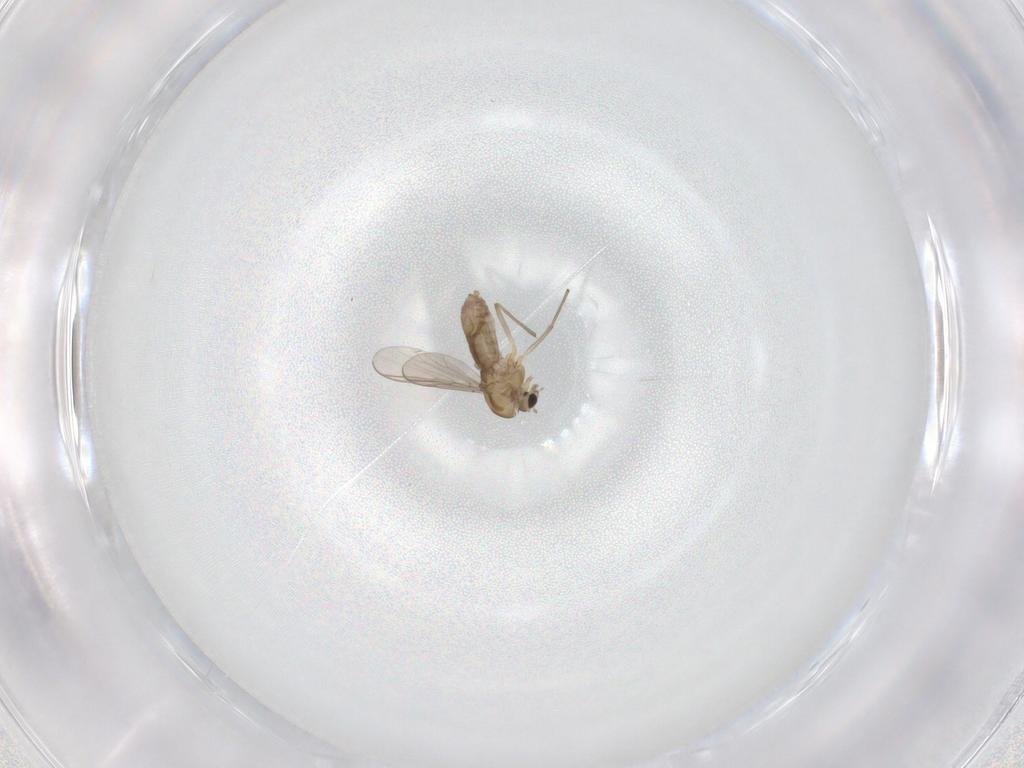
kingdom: Animalia
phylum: Arthropoda
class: Insecta
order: Diptera
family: Chironomidae
